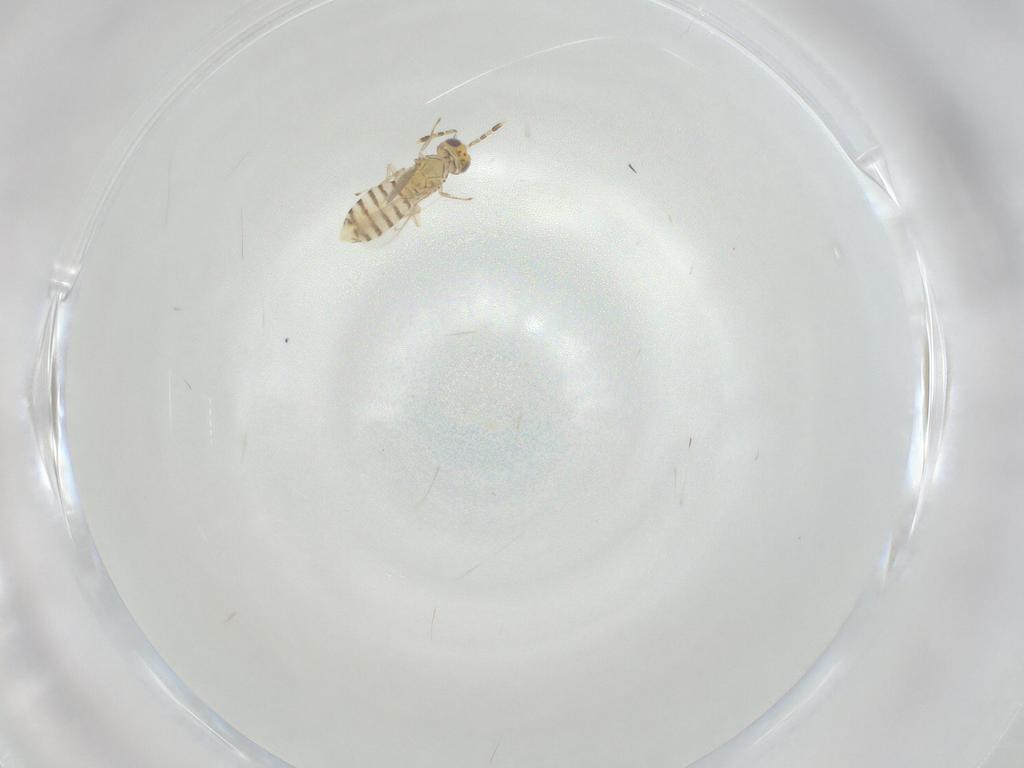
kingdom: Animalia
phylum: Arthropoda
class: Insecta
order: Hymenoptera
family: Aphelinidae
